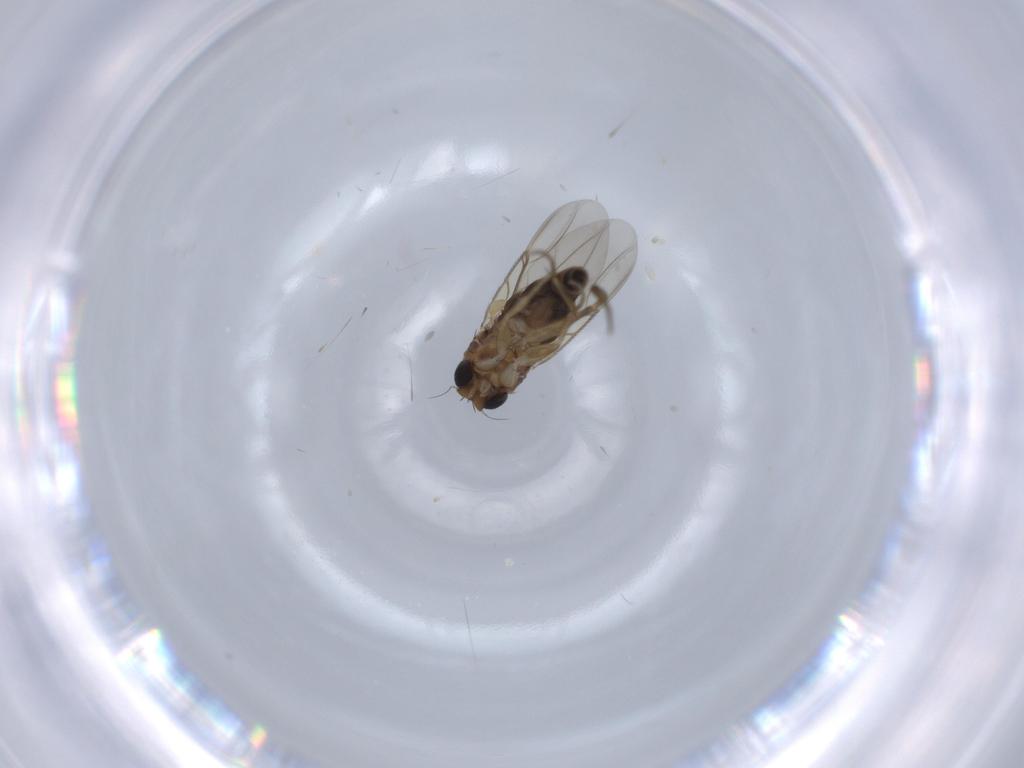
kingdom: Animalia
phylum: Arthropoda
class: Insecta
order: Diptera
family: Phoridae
